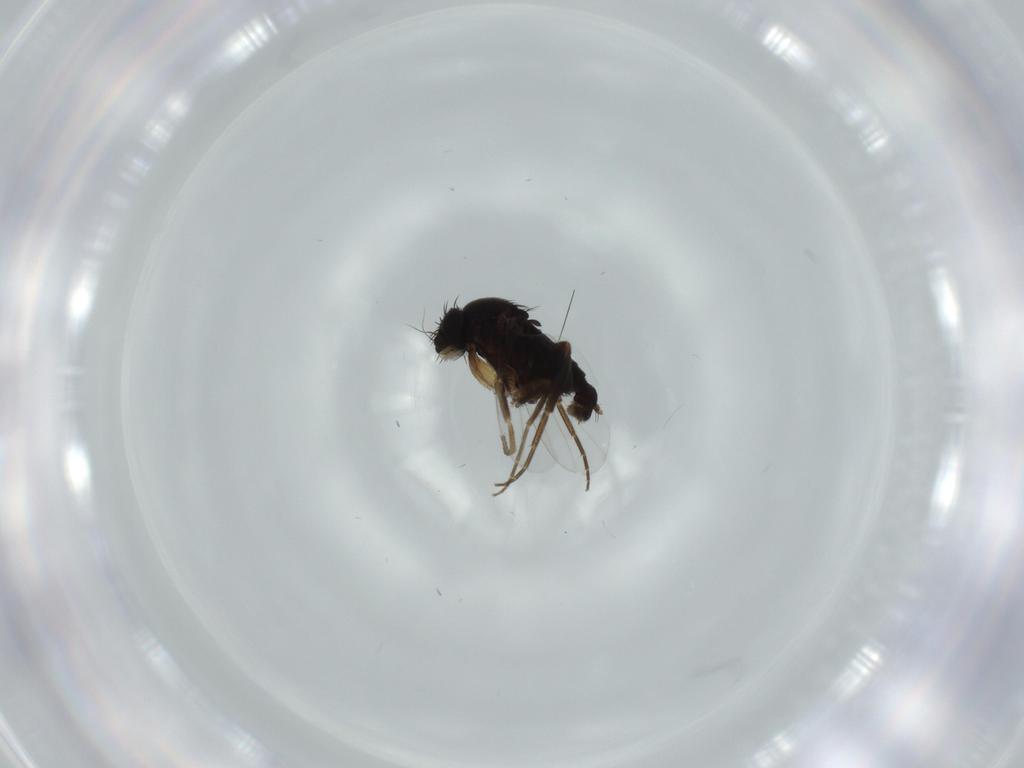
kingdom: Animalia
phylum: Arthropoda
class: Insecta
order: Diptera
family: Phoridae
